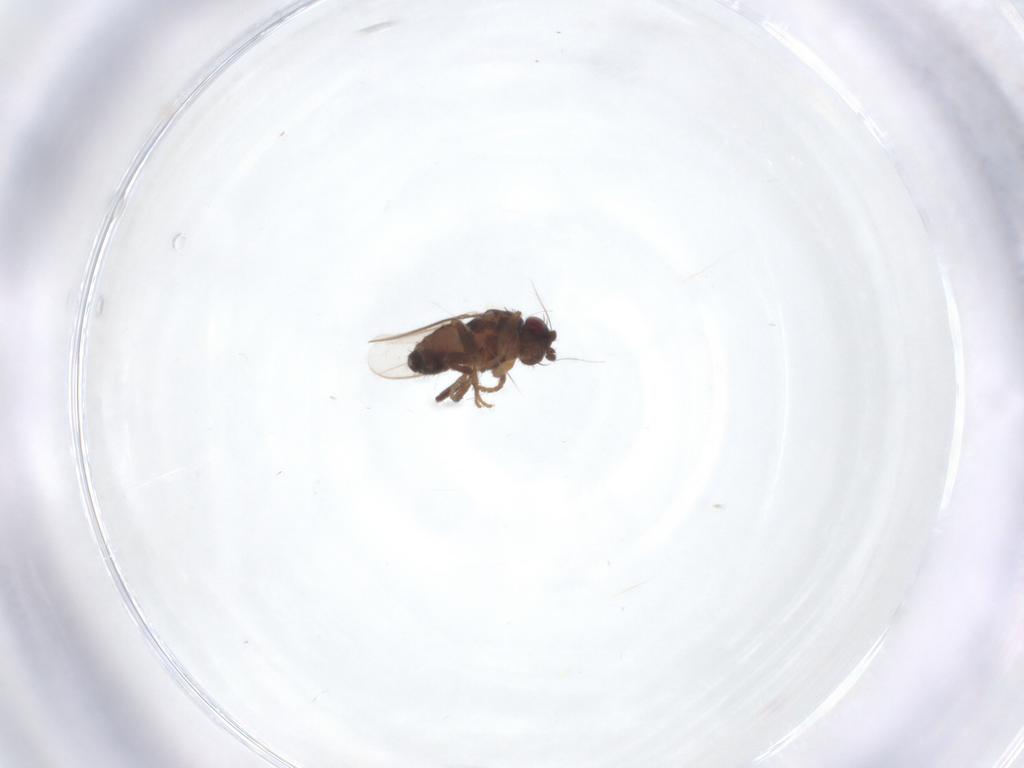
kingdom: Animalia
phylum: Arthropoda
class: Insecta
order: Diptera
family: Sphaeroceridae
